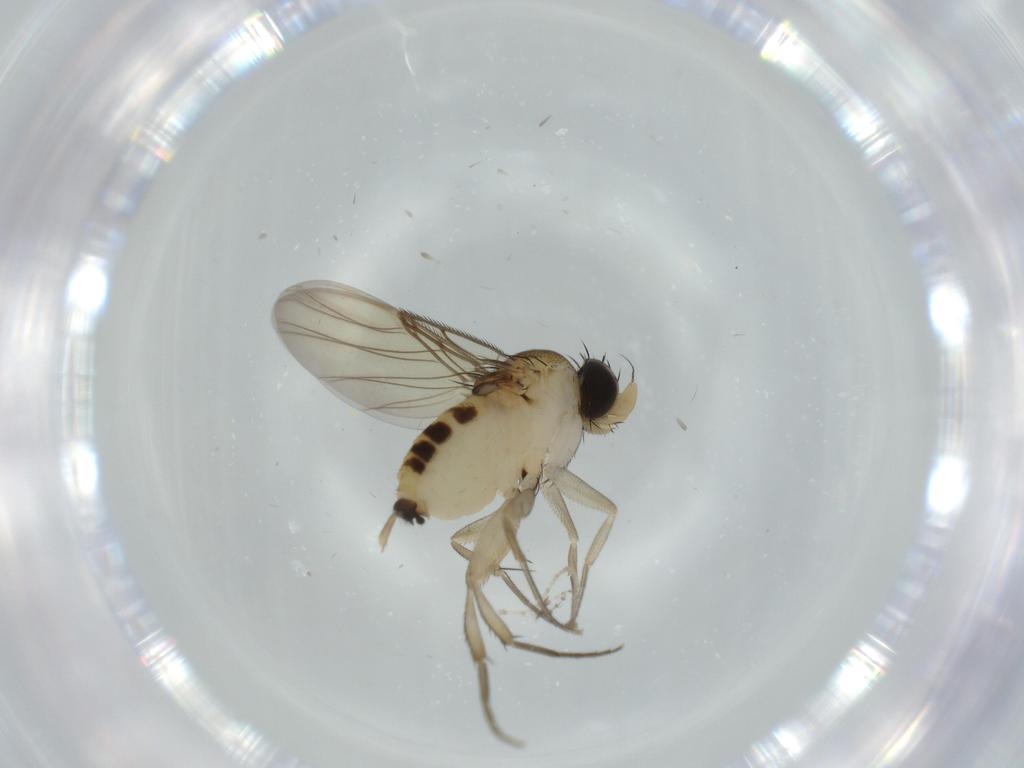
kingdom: Animalia
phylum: Arthropoda
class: Insecta
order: Diptera
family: Phoridae
